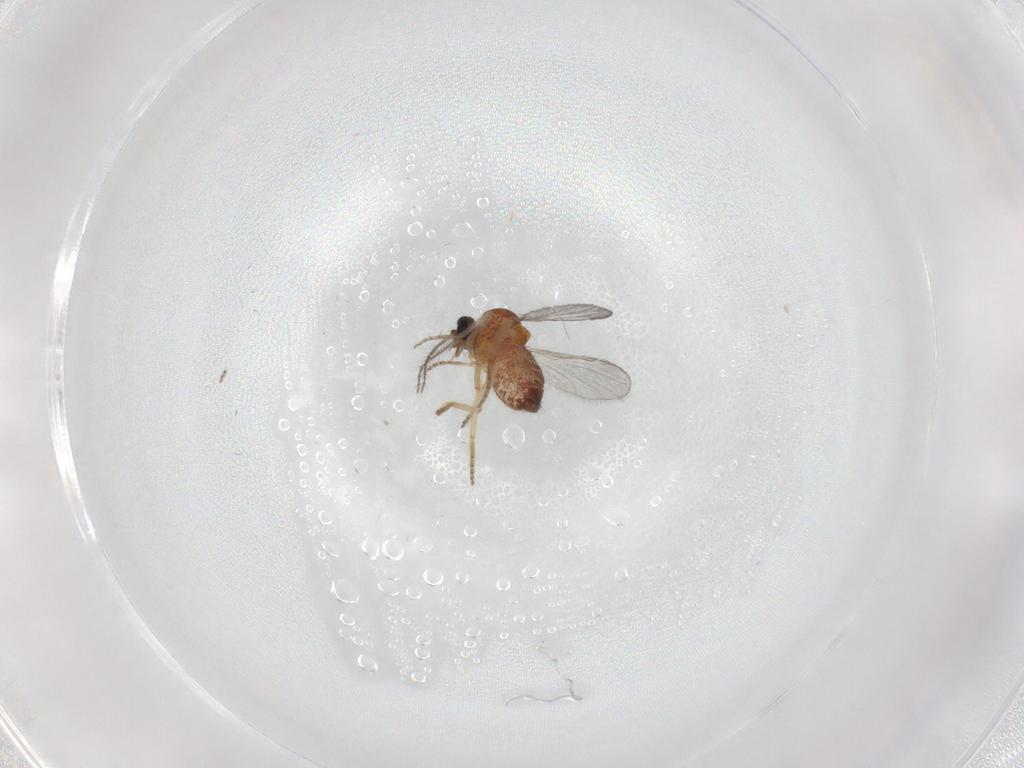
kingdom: Animalia
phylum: Arthropoda
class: Insecta
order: Diptera
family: Ceratopogonidae
